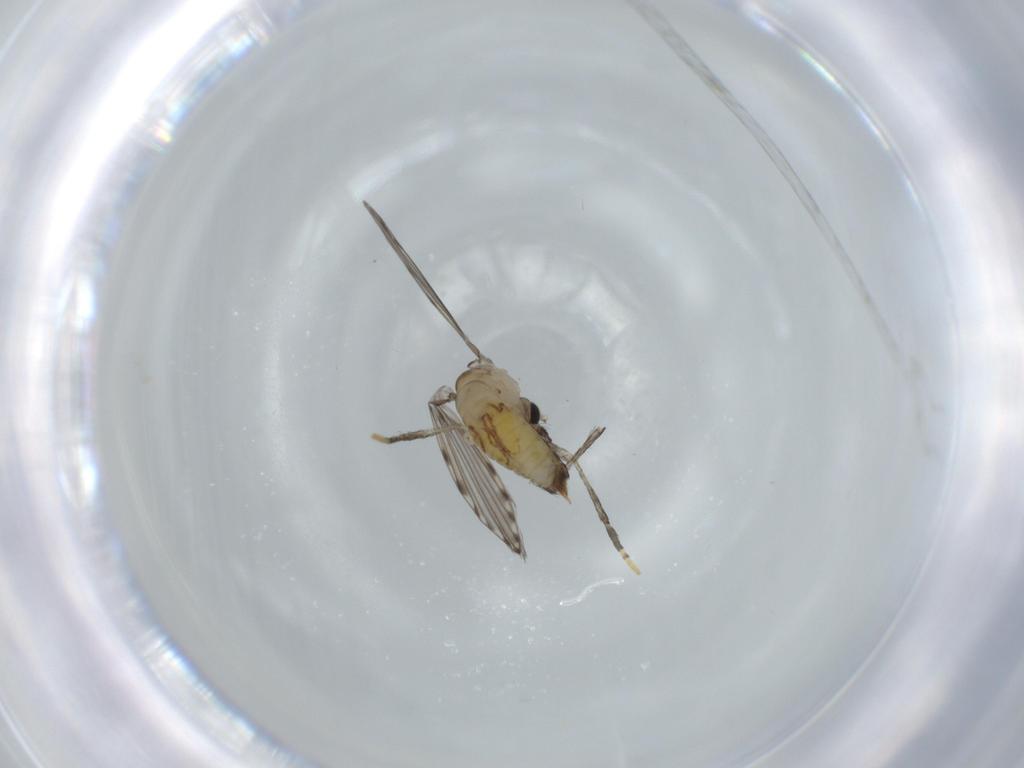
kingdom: Animalia
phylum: Arthropoda
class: Insecta
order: Diptera
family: Psychodidae
